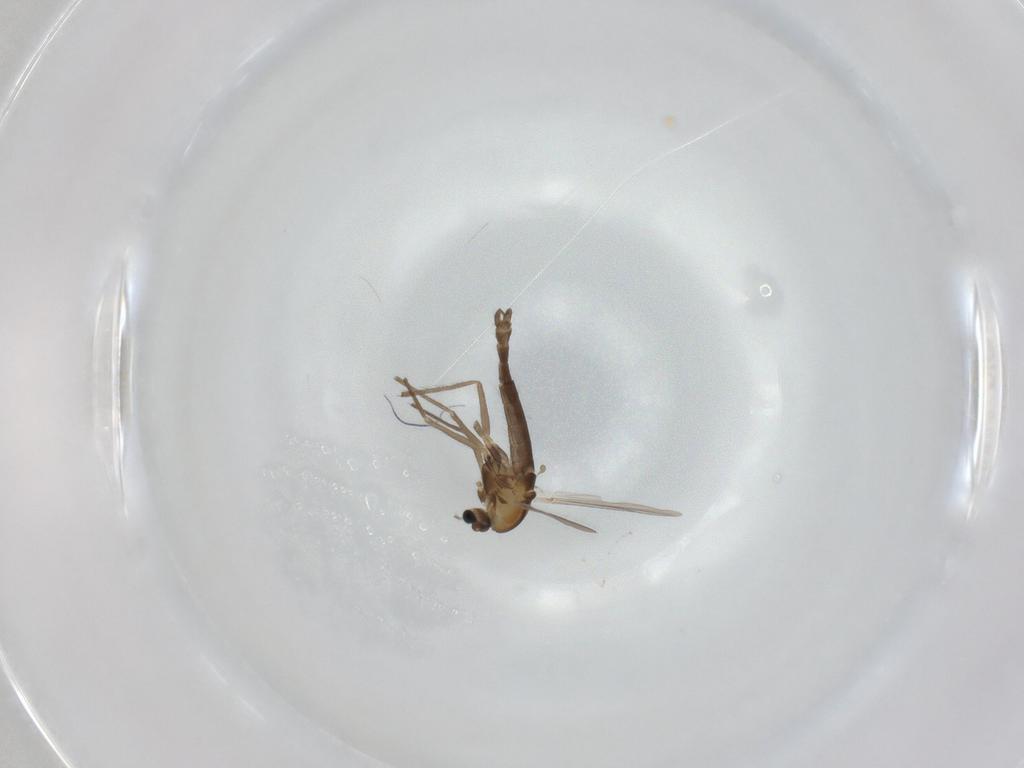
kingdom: Animalia
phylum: Arthropoda
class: Insecta
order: Diptera
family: Chironomidae
